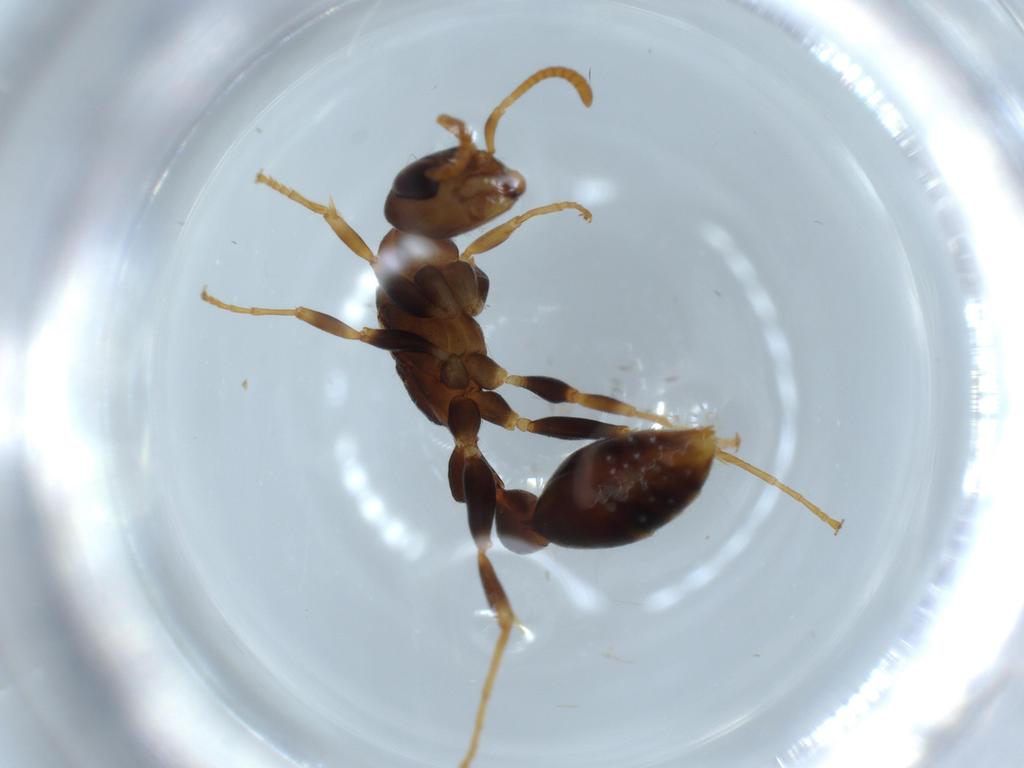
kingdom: Animalia
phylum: Arthropoda
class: Insecta
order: Hymenoptera
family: Formicidae
